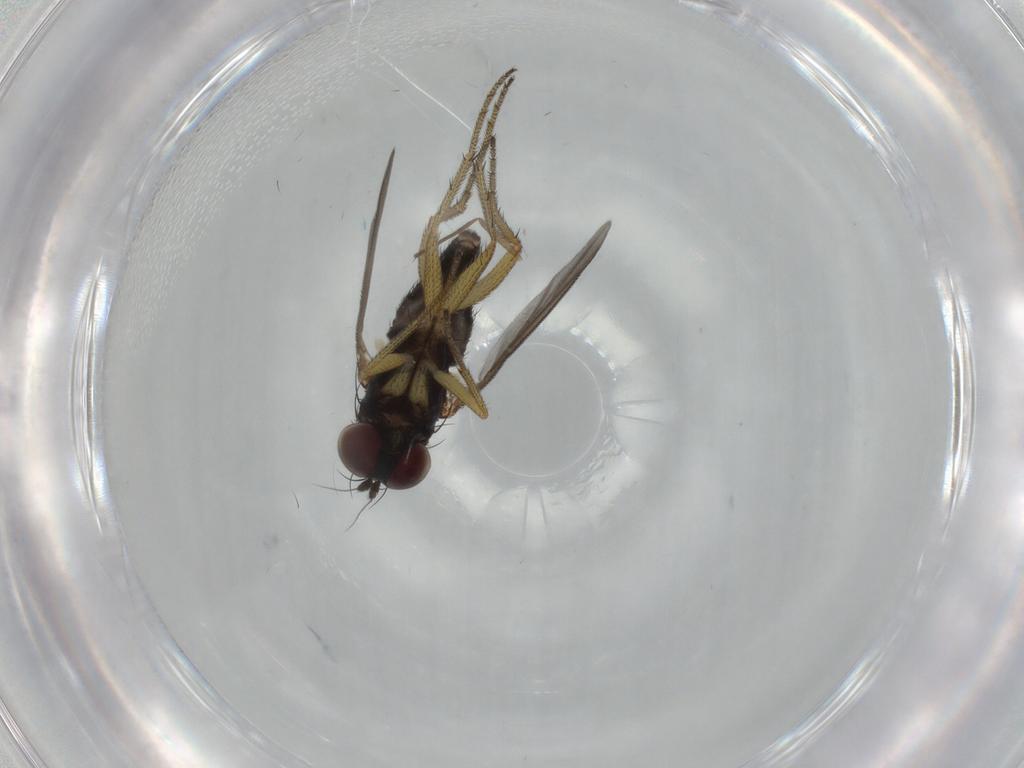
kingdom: Animalia
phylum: Arthropoda
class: Insecta
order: Diptera
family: Dolichopodidae
